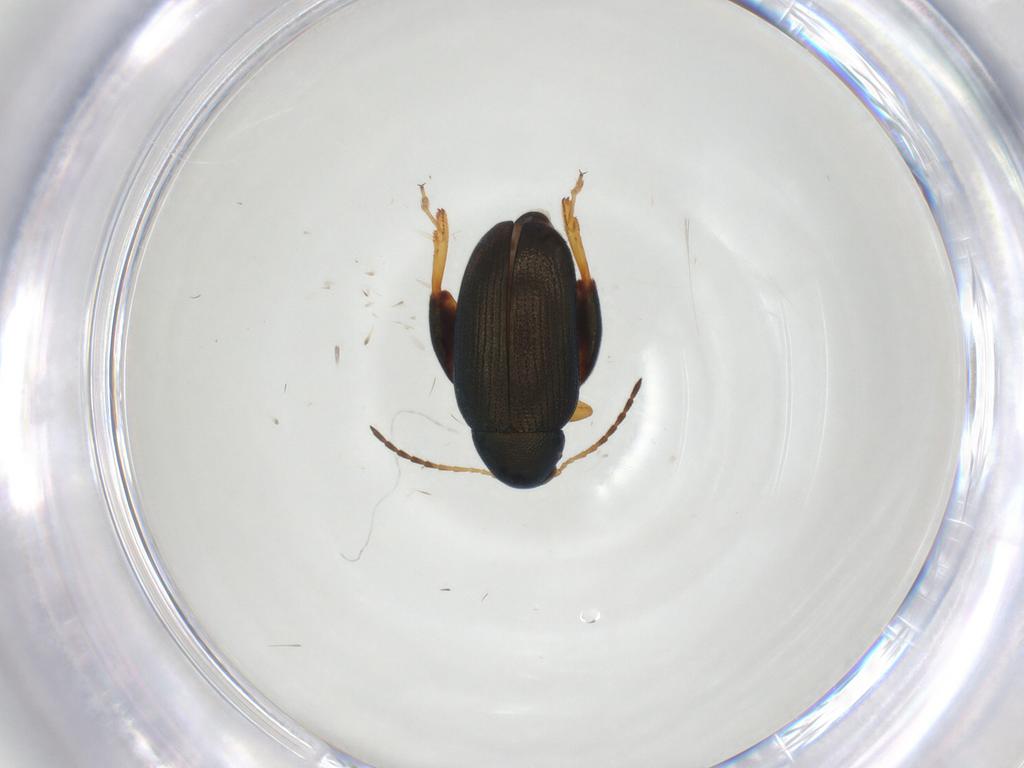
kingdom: Animalia
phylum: Arthropoda
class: Insecta
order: Coleoptera
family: Chrysomelidae
